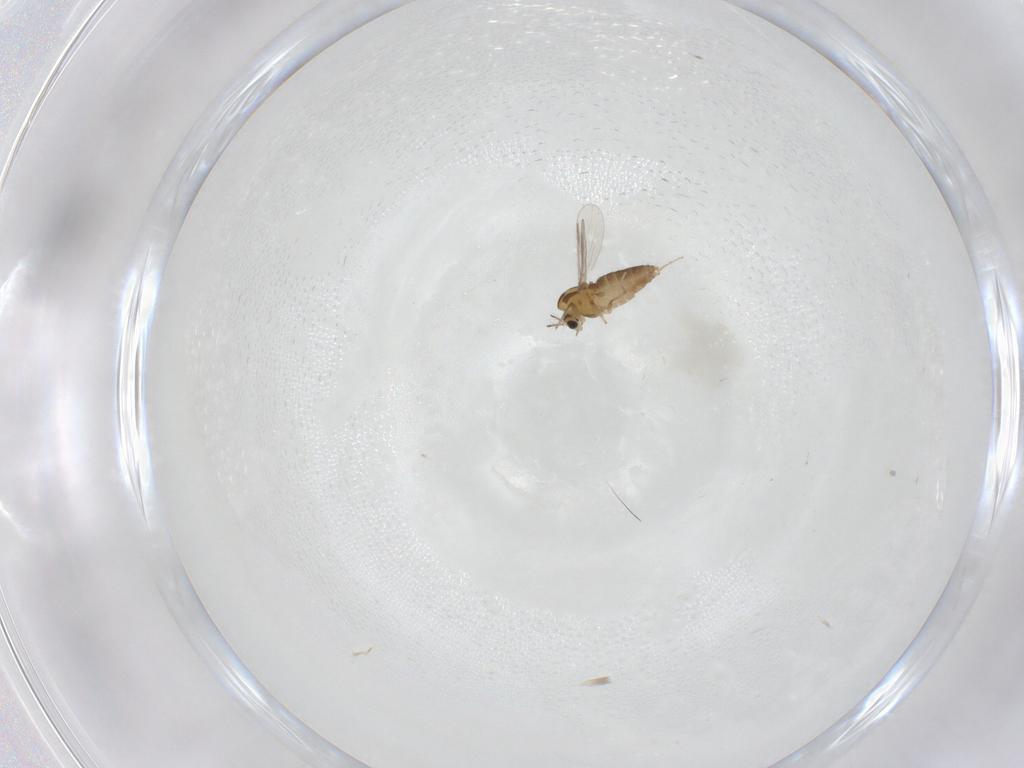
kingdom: Animalia
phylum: Arthropoda
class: Insecta
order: Diptera
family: Chironomidae
